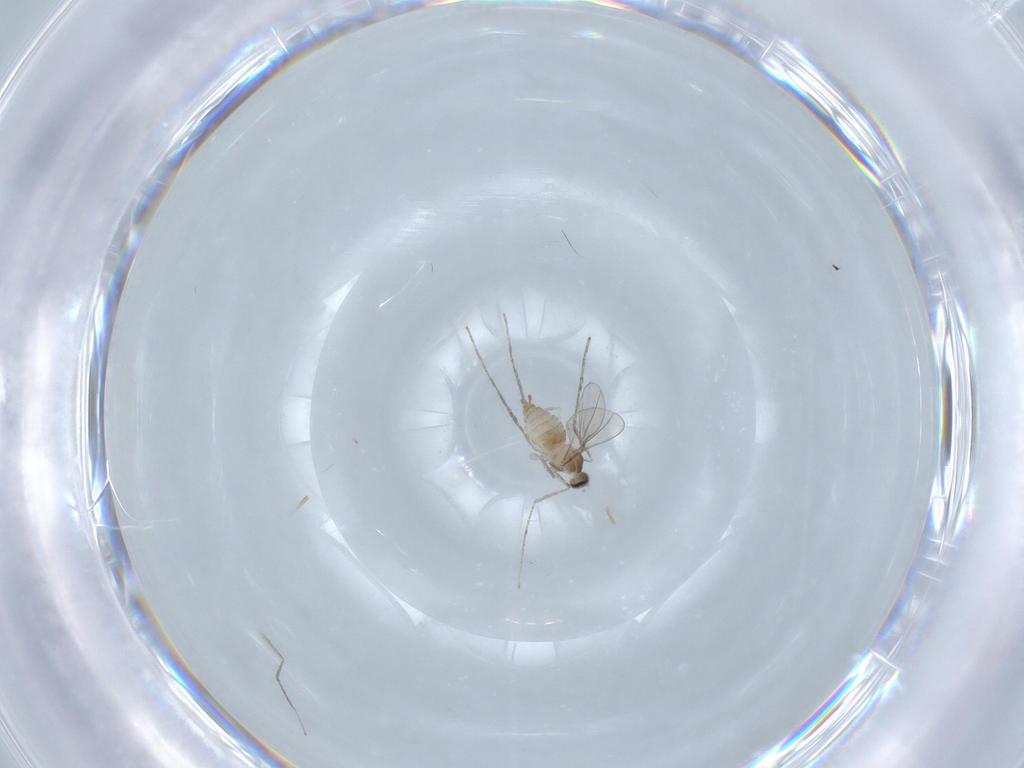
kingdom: Animalia
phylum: Arthropoda
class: Insecta
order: Diptera
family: Cecidomyiidae
